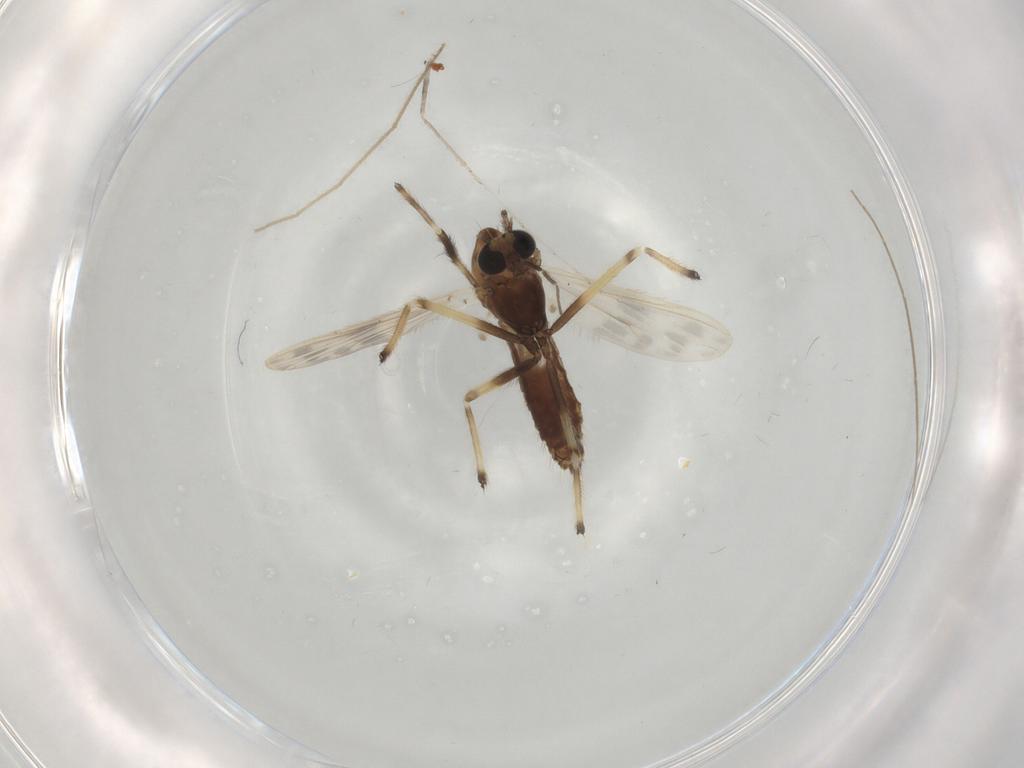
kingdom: Animalia
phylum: Arthropoda
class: Insecta
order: Diptera
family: Chironomidae
